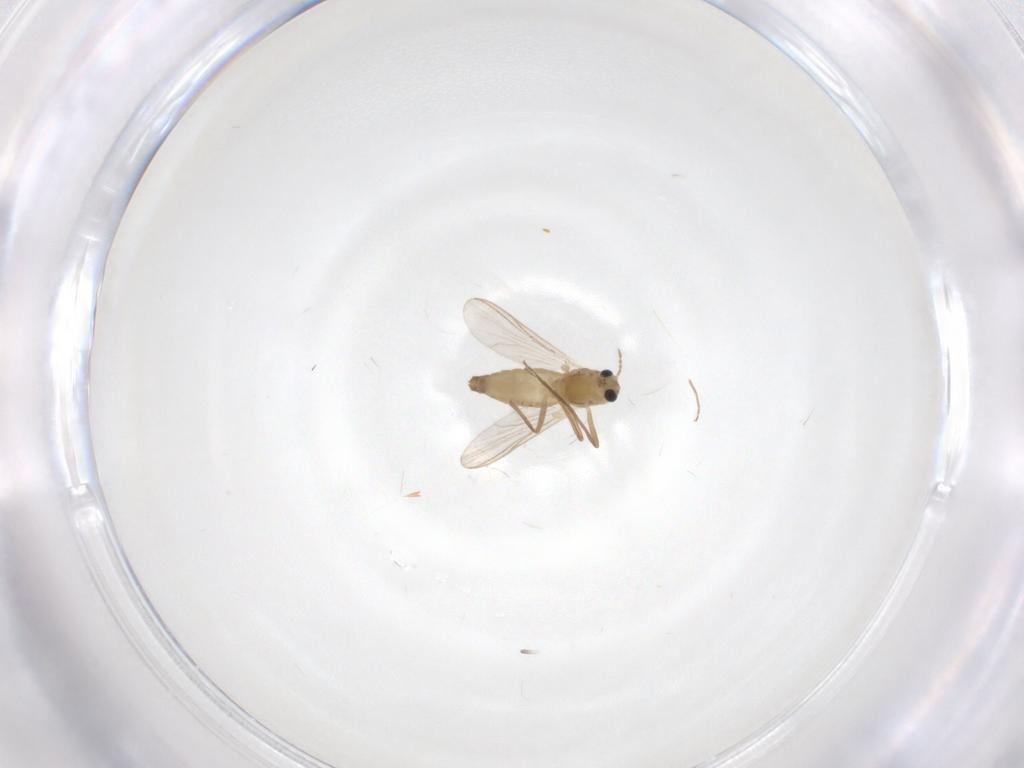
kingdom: Animalia
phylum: Arthropoda
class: Insecta
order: Diptera
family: Chironomidae
